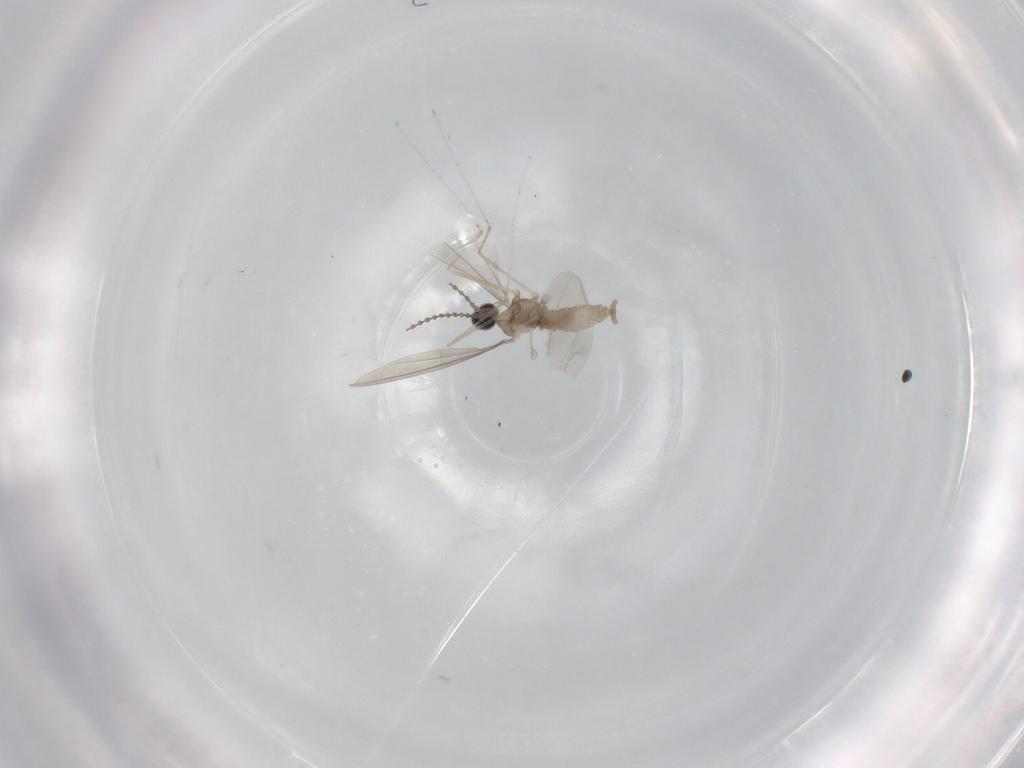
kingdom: Animalia
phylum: Arthropoda
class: Insecta
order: Diptera
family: Cecidomyiidae
